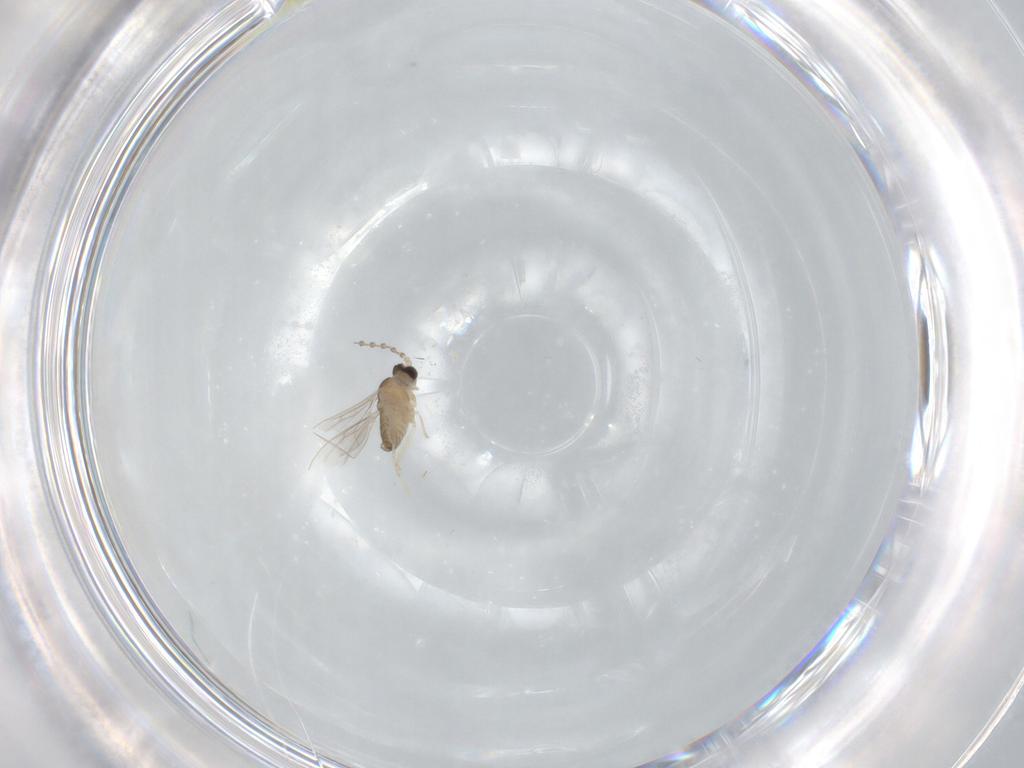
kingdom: Animalia
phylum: Arthropoda
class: Insecta
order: Diptera
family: Cecidomyiidae
